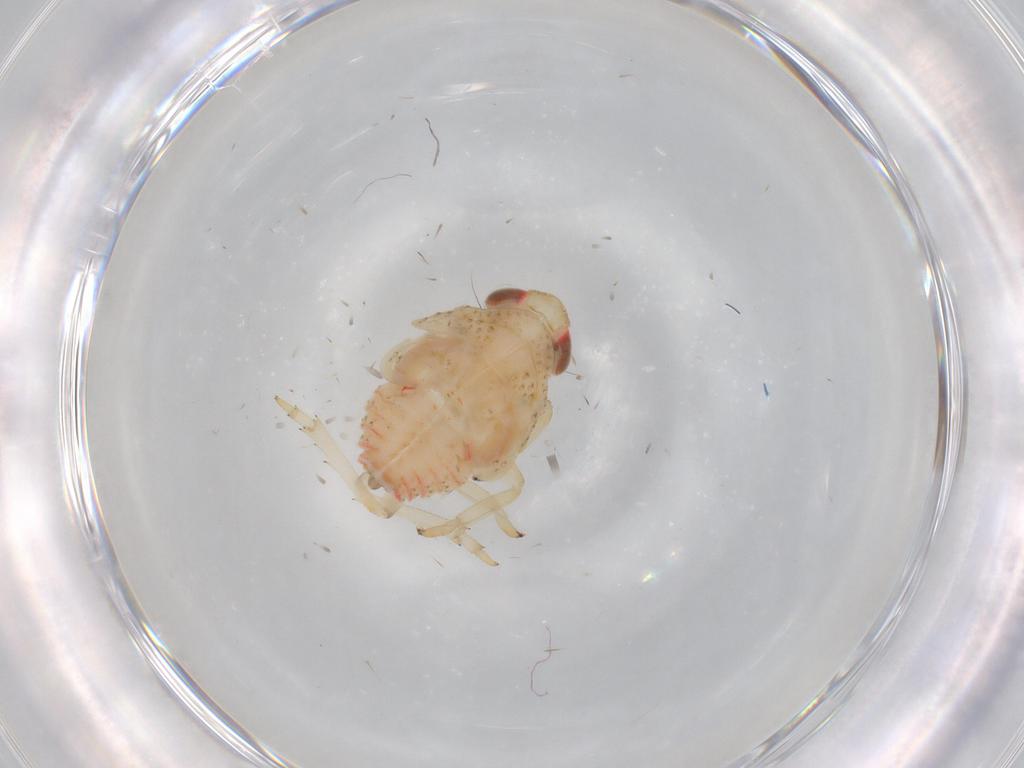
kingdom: Animalia
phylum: Arthropoda
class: Insecta
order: Hemiptera
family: Issidae
